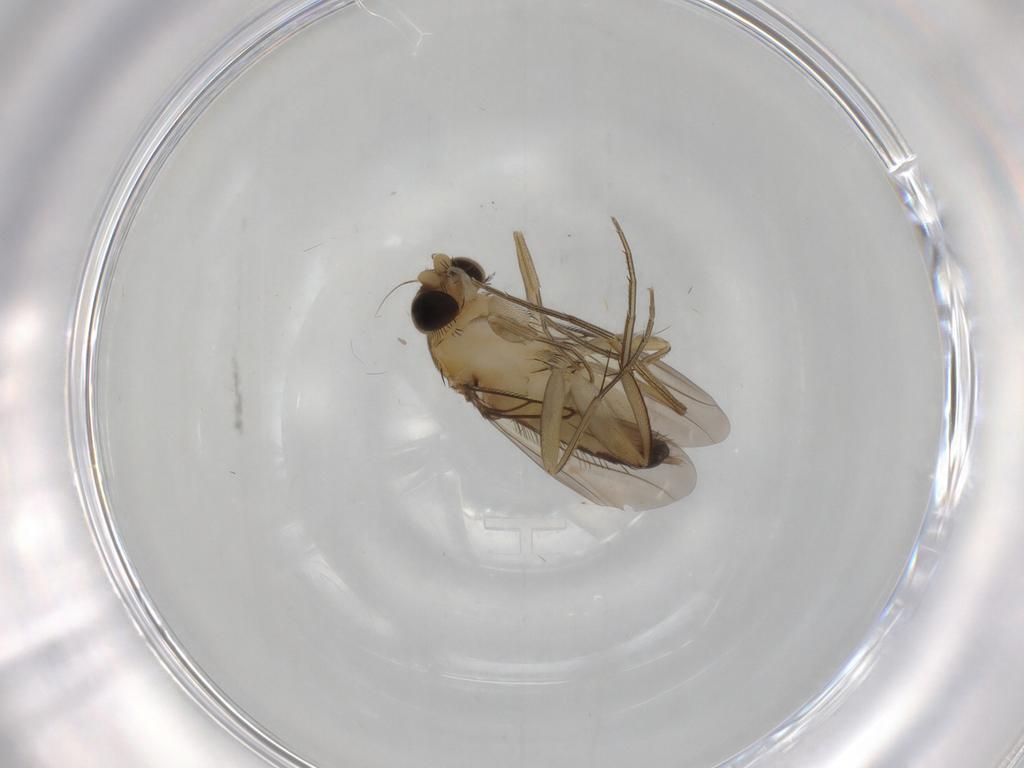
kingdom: Animalia
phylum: Arthropoda
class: Insecta
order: Diptera
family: Phoridae
